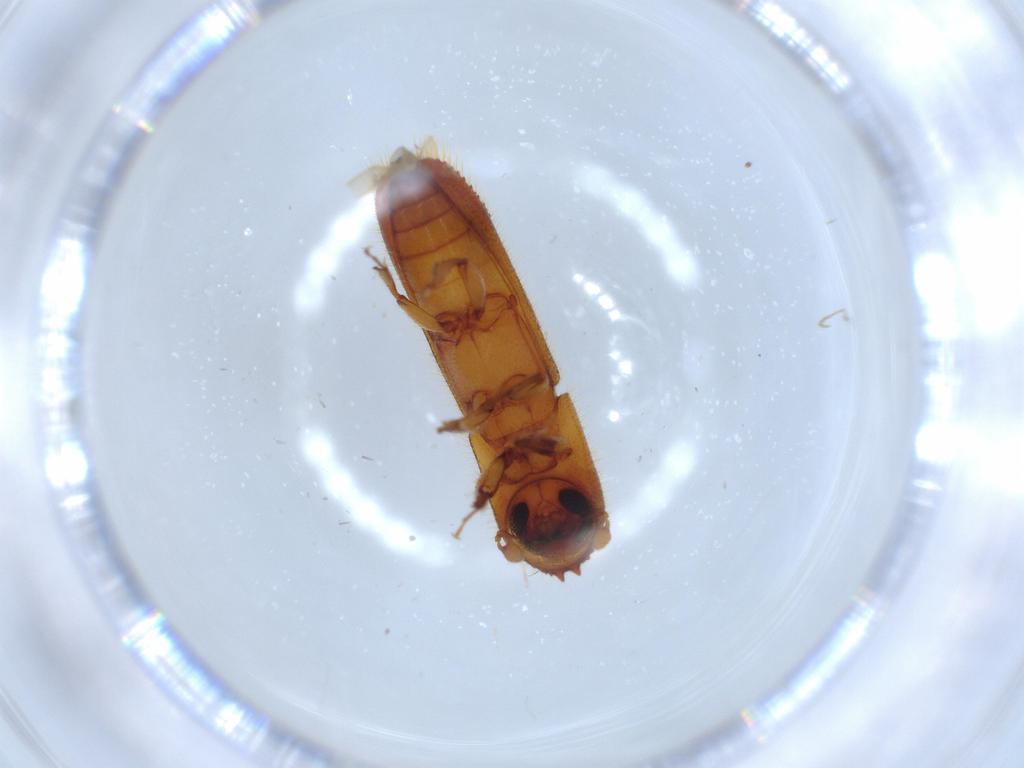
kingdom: Animalia
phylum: Arthropoda
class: Insecta
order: Coleoptera
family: Curculionidae
